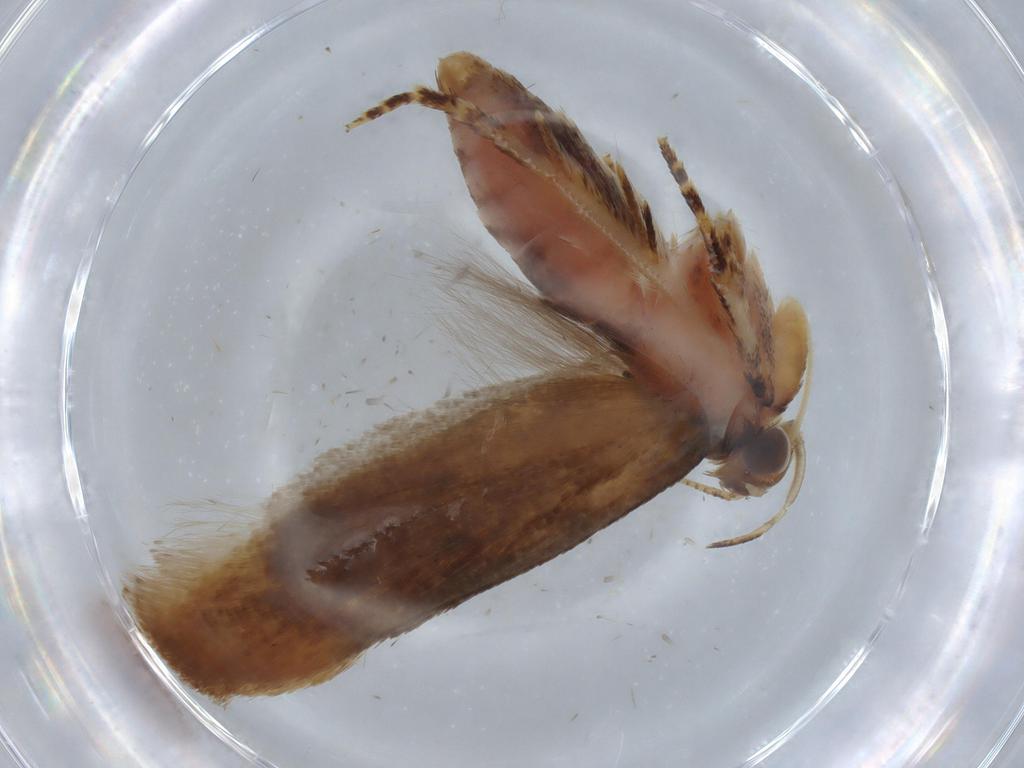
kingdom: Animalia
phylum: Arthropoda
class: Insecta
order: Lepidoptera
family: Gelechiidae
